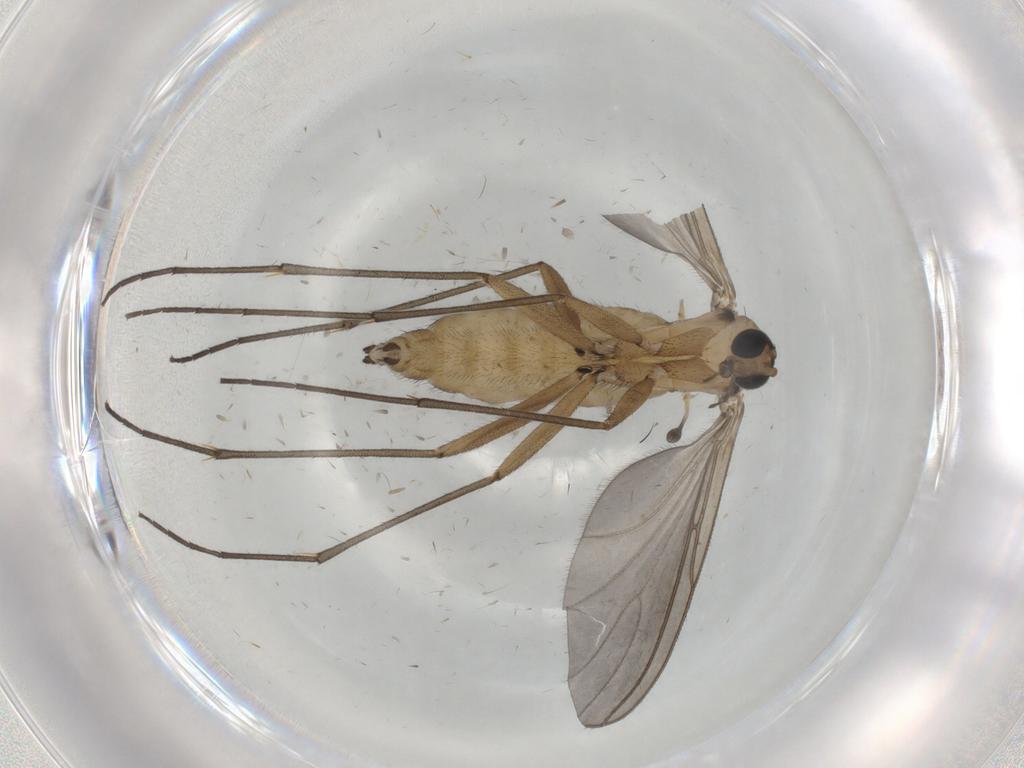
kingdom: Animalia
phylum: Arthropoda
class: Insecta
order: Diptera
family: Sciaridae
